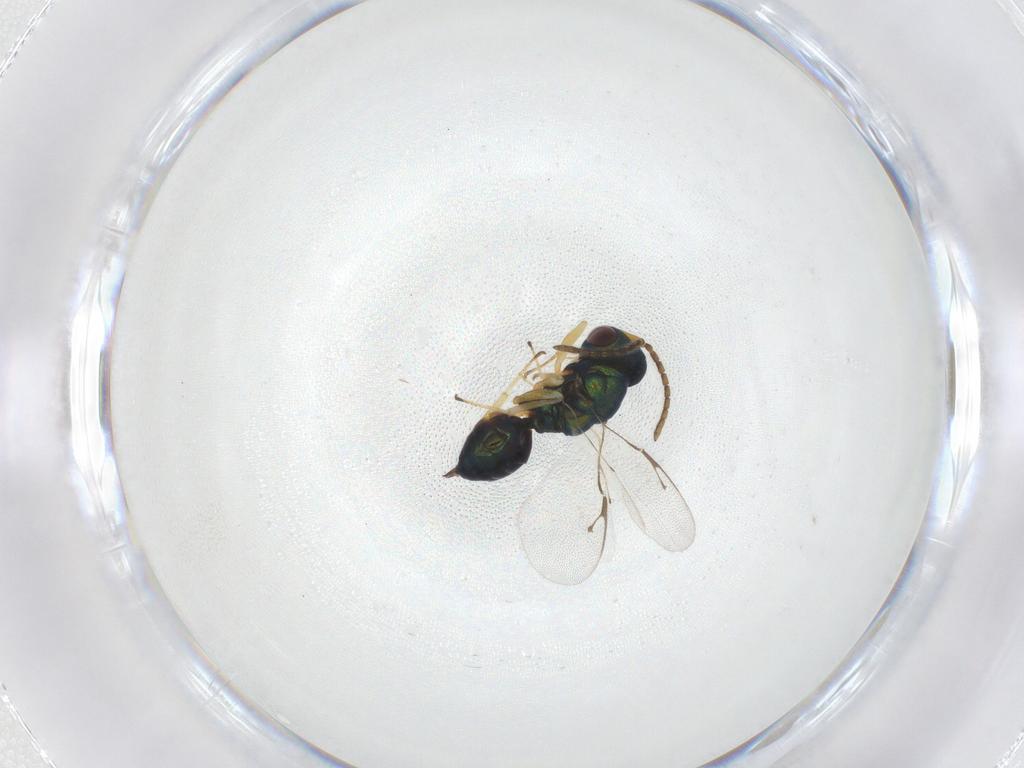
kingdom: Animalia
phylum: Arthropoda
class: Insecta
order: Hymenoptera
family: Pteromalidae
